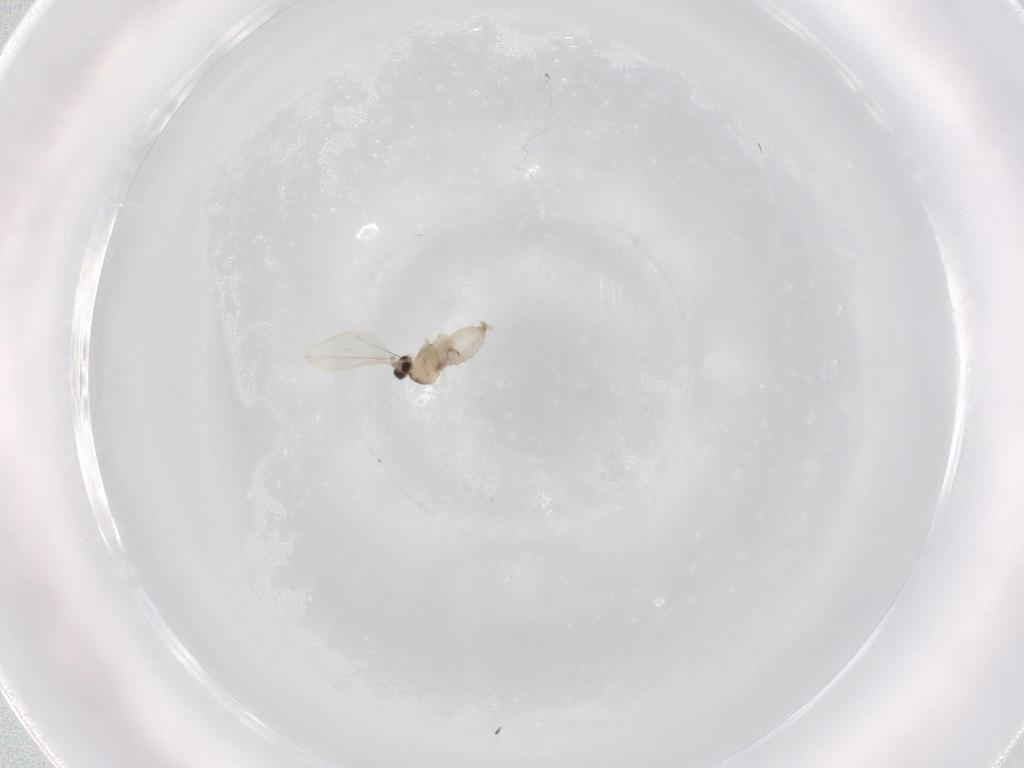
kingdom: Animalia
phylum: Arthropoda
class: Insecta
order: Diptera
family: Cecidomyiidae
